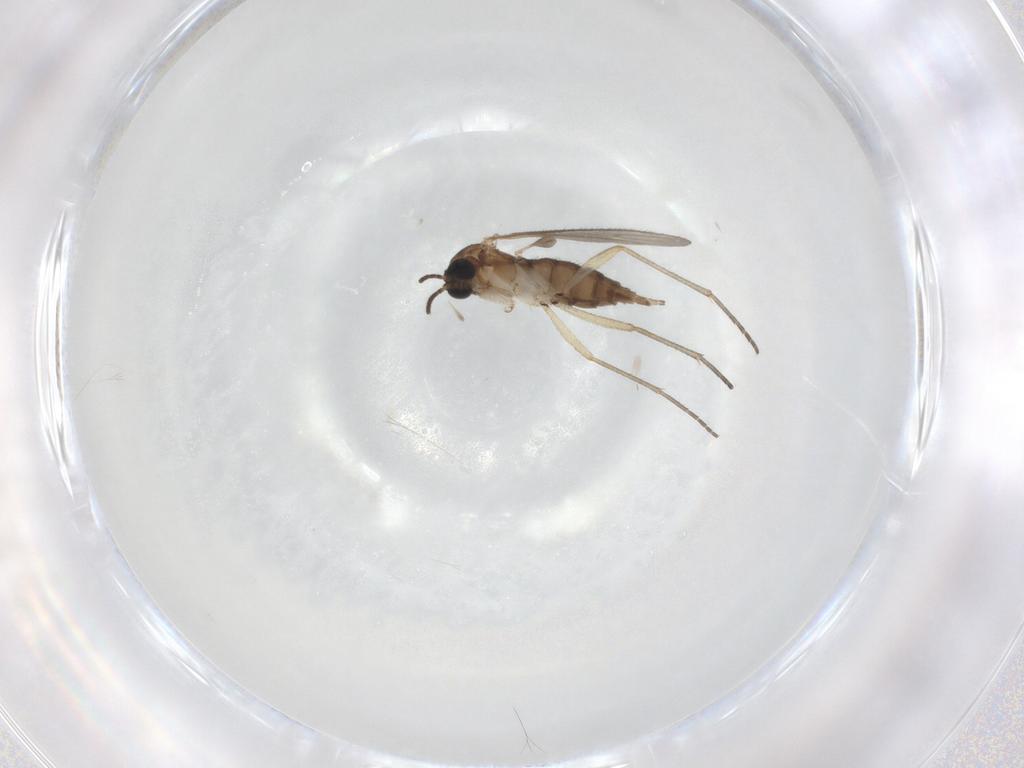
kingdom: Animalia
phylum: Arthropoda
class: Insecta
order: Diptera
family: Sciaridae
